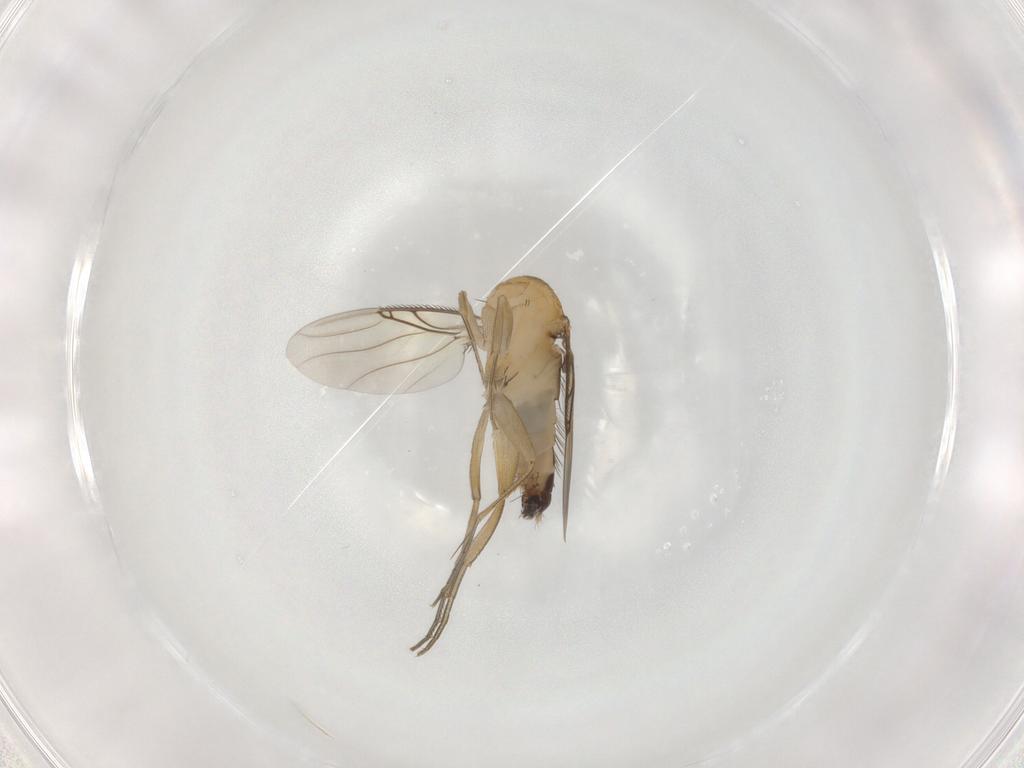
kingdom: Animalia
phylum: Arthropoda
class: Insecta
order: Diptera
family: Phoridae
